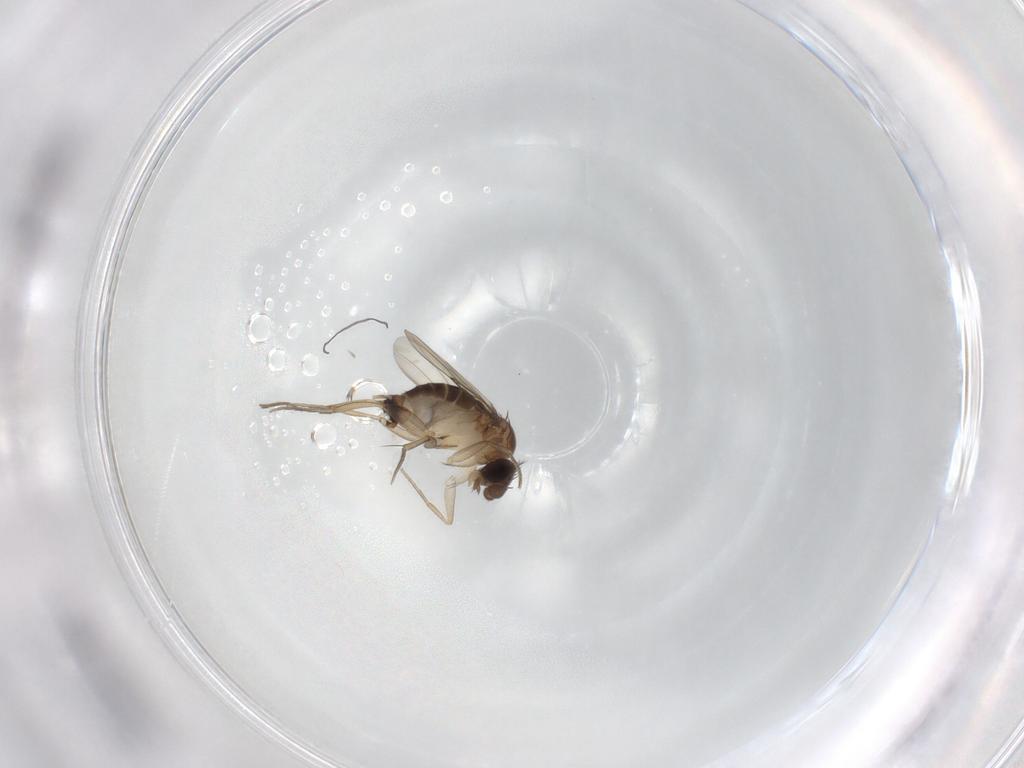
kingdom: Animalia
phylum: Arthropoda
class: Insecta
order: Diptera
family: Phoridae
